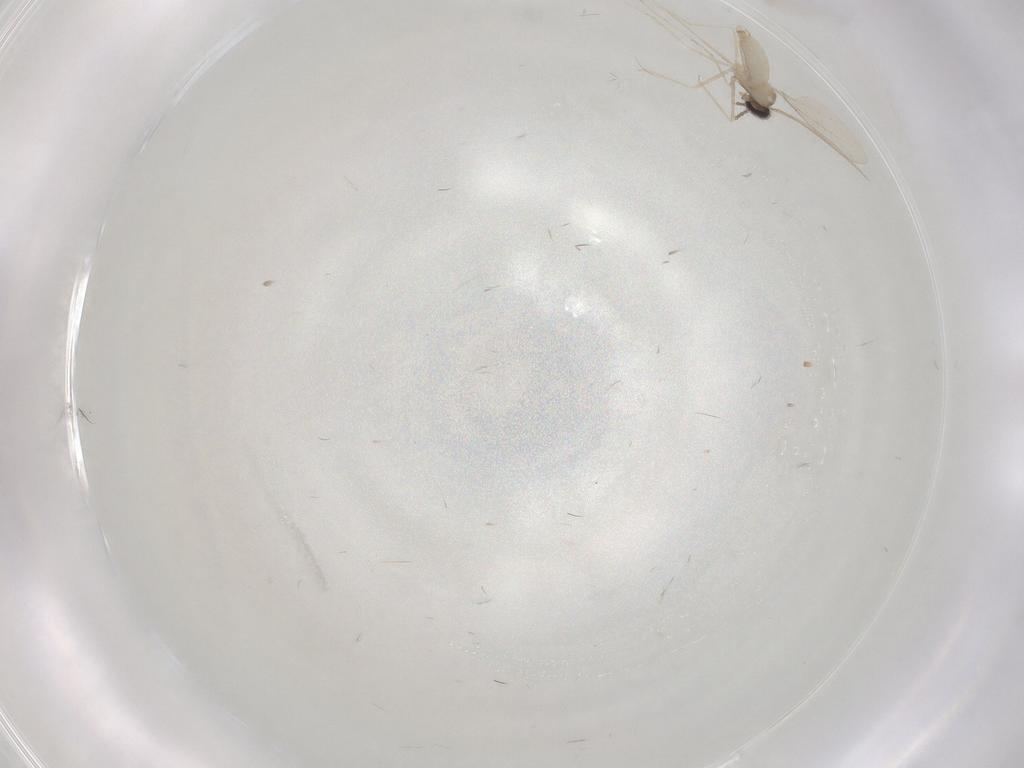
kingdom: Animalia
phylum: Arthropoda
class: Insecta
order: Diptera
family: Cecidomyiidae
